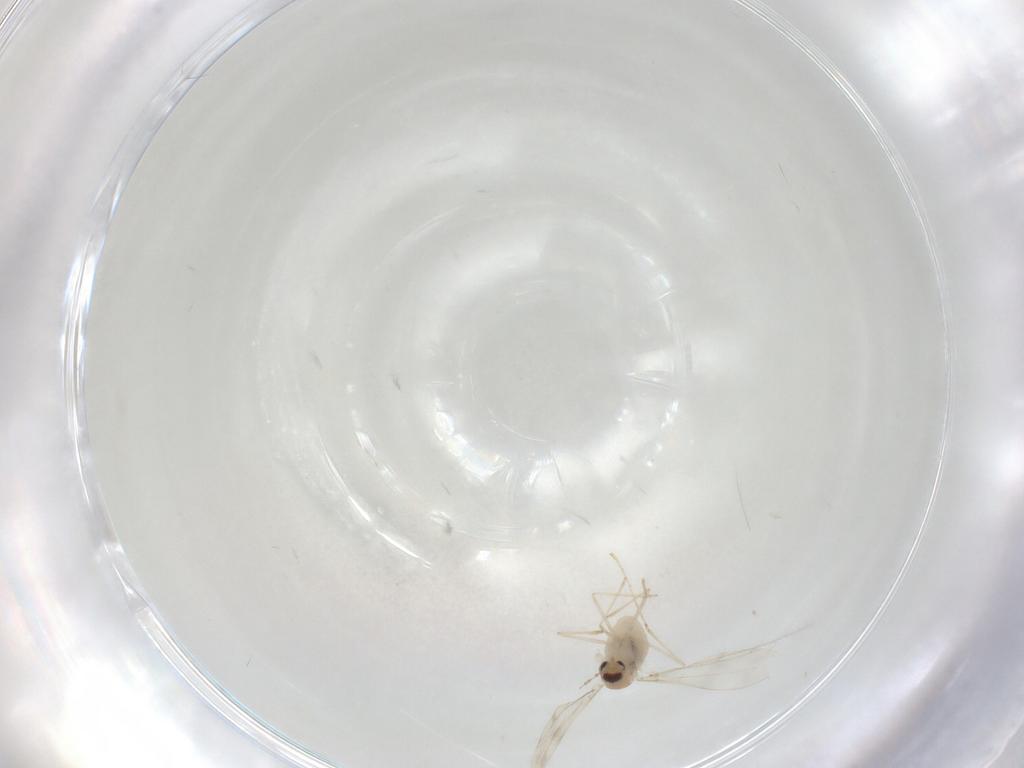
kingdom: Animalia
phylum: Arthropoda
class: Insecta
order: Diptera
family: Cecidomyiidae
